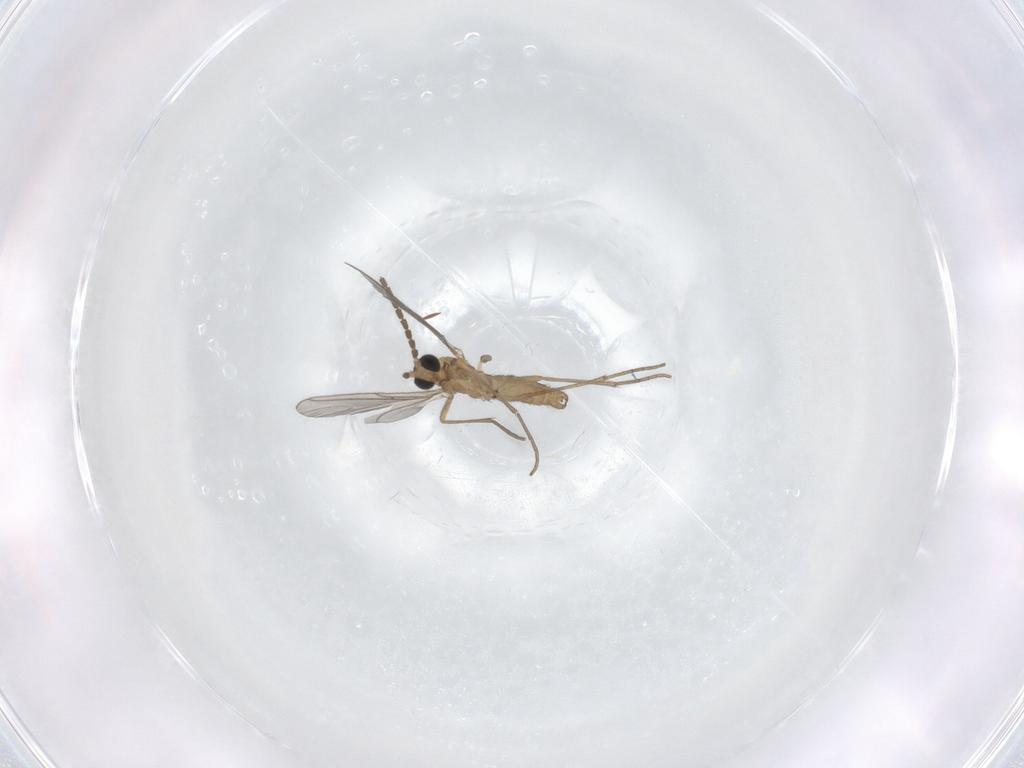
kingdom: Animalia
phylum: Arthropoda
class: Insecta
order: Diptera
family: Sciaridae
